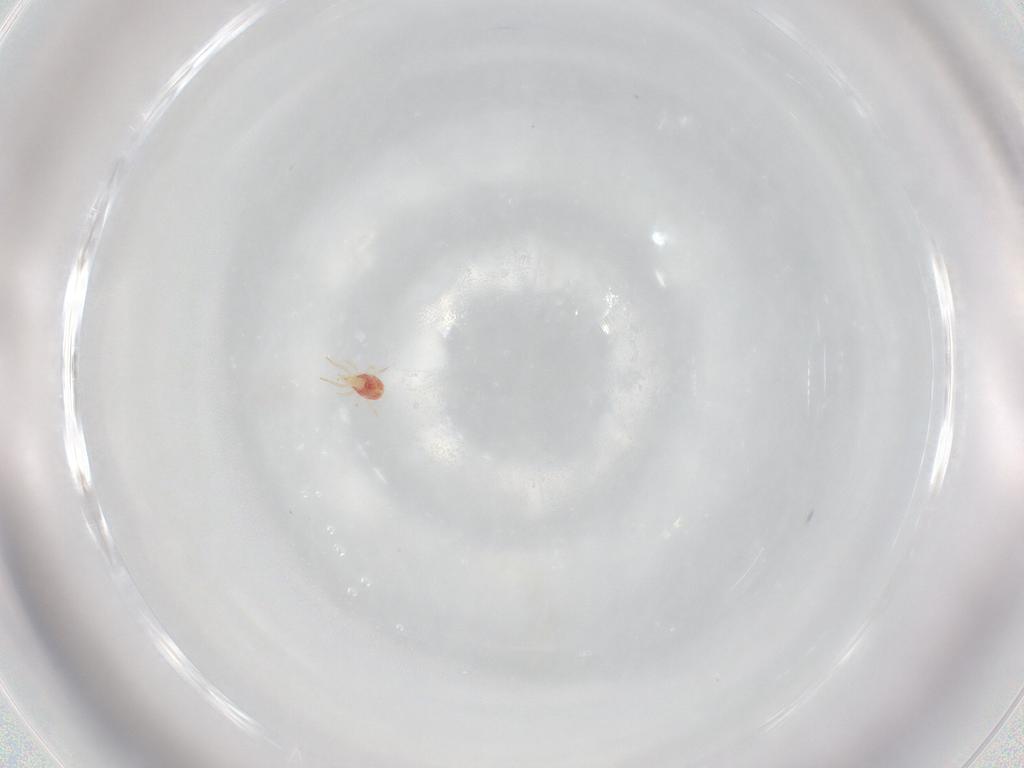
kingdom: Animalia
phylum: Arthropoda
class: Arachnida
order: Mesostigmata
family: Phytoseiidae
